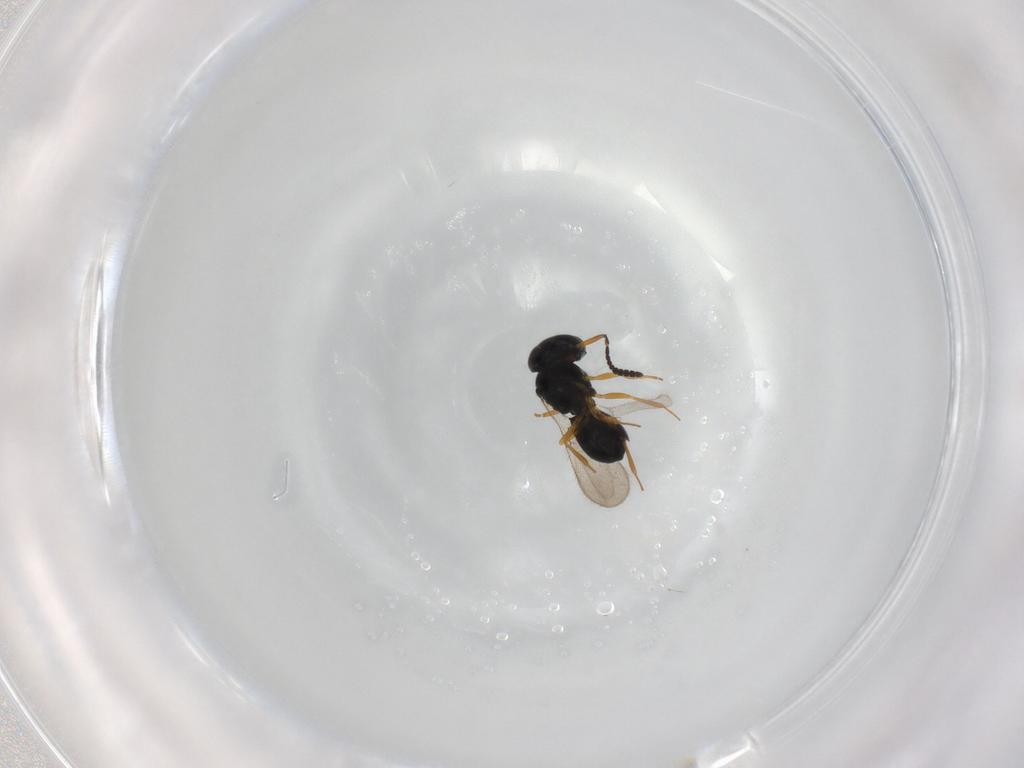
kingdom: Animalia
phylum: Arthropoda
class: Insecta
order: Hymenoptera
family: Scelionidae
